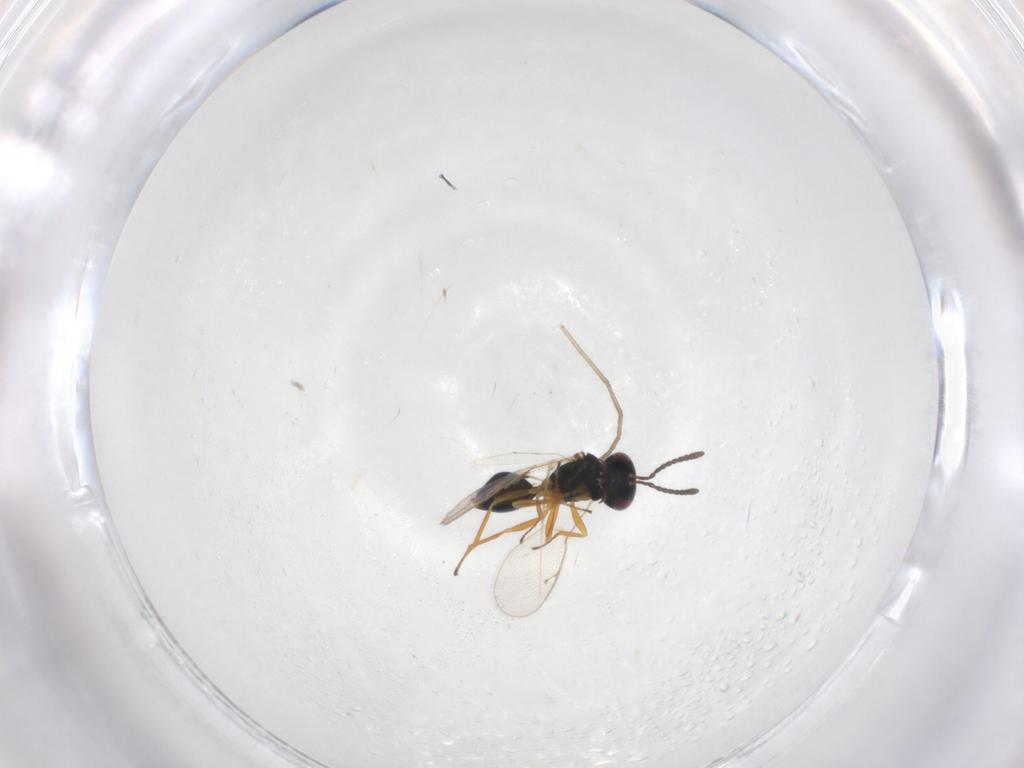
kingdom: Animalia
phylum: Arthropoda
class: Insecta
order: Hymenoptera
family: Pteromalidae
